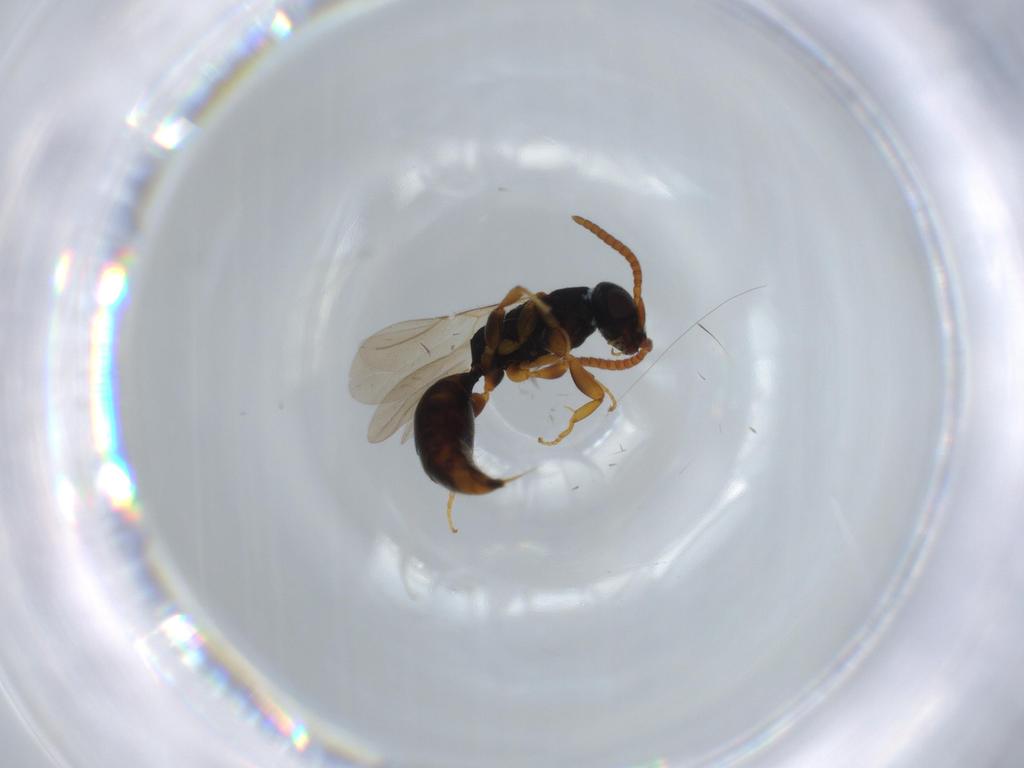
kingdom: Animalia
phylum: Arthropoda
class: Insecta
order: Hymenoptera
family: Bethylidae
